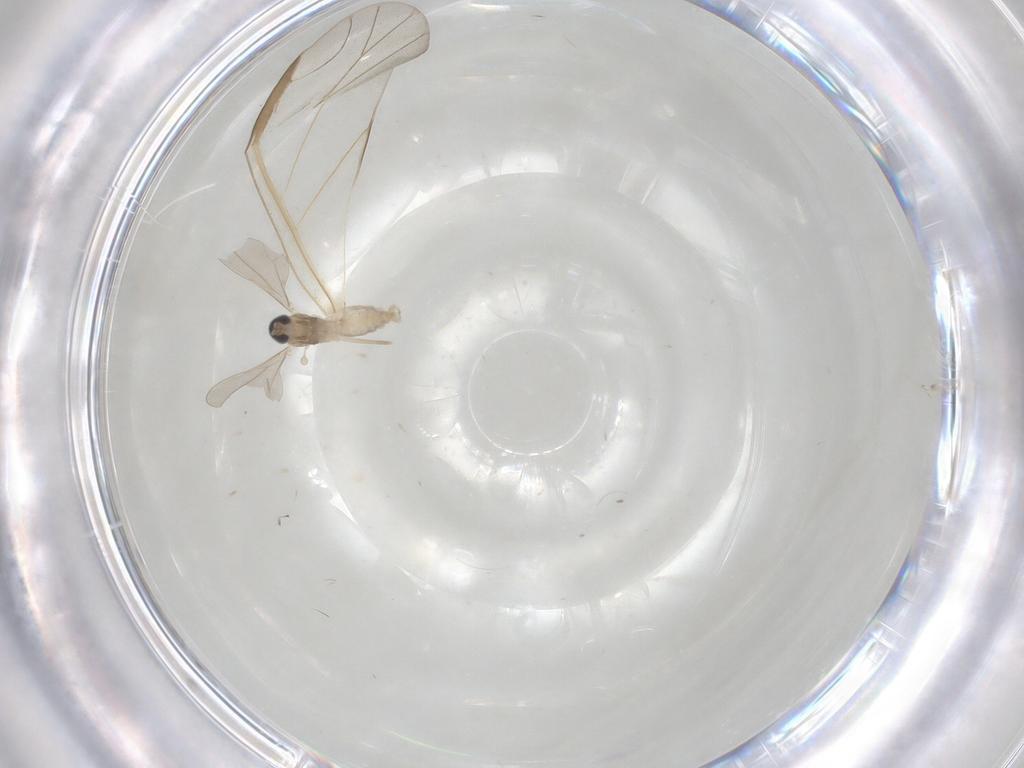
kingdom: Animalia
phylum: Arthropoda
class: Insecta
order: Diptera
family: Cecidomyiidae
